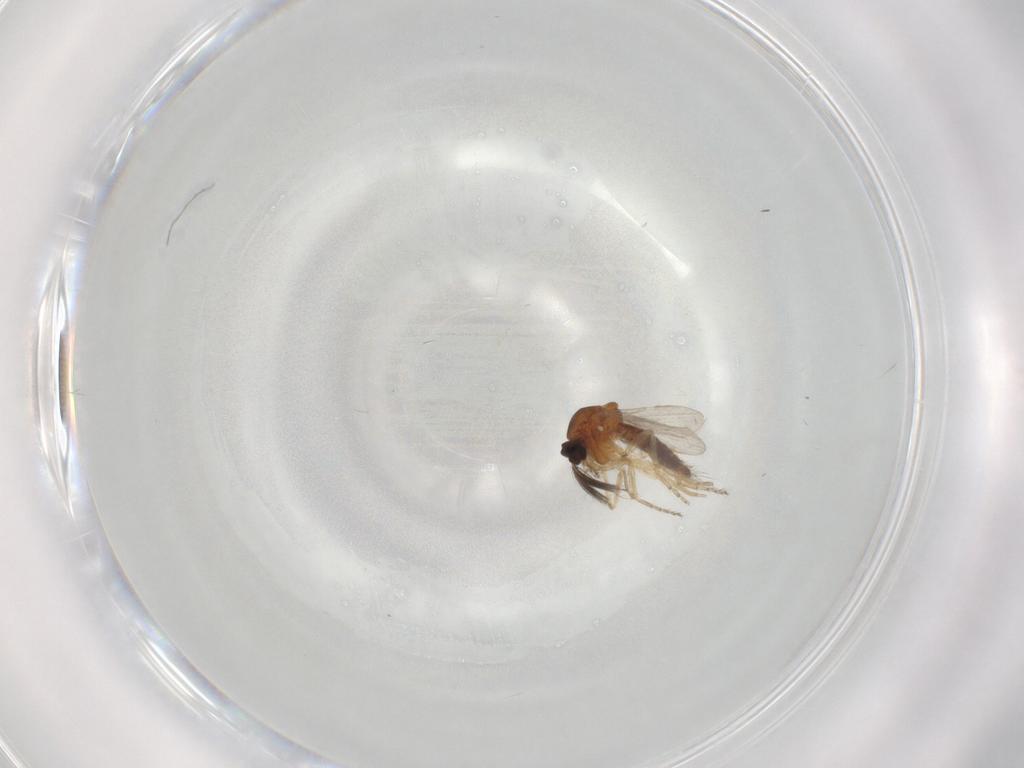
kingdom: Animalia
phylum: Arthropoda
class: Insecta
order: Diptera
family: Ceratopogonidae
